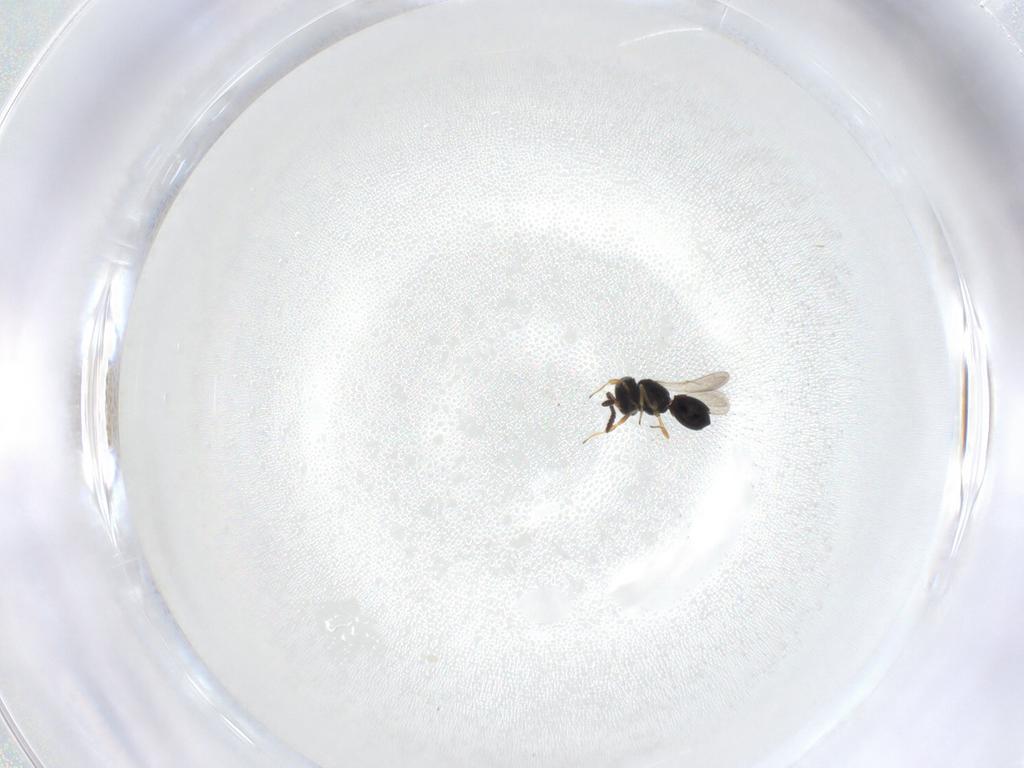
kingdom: Animalia
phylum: Arthropoda
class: Insecta
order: Hymenoptera
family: Scelionidae
